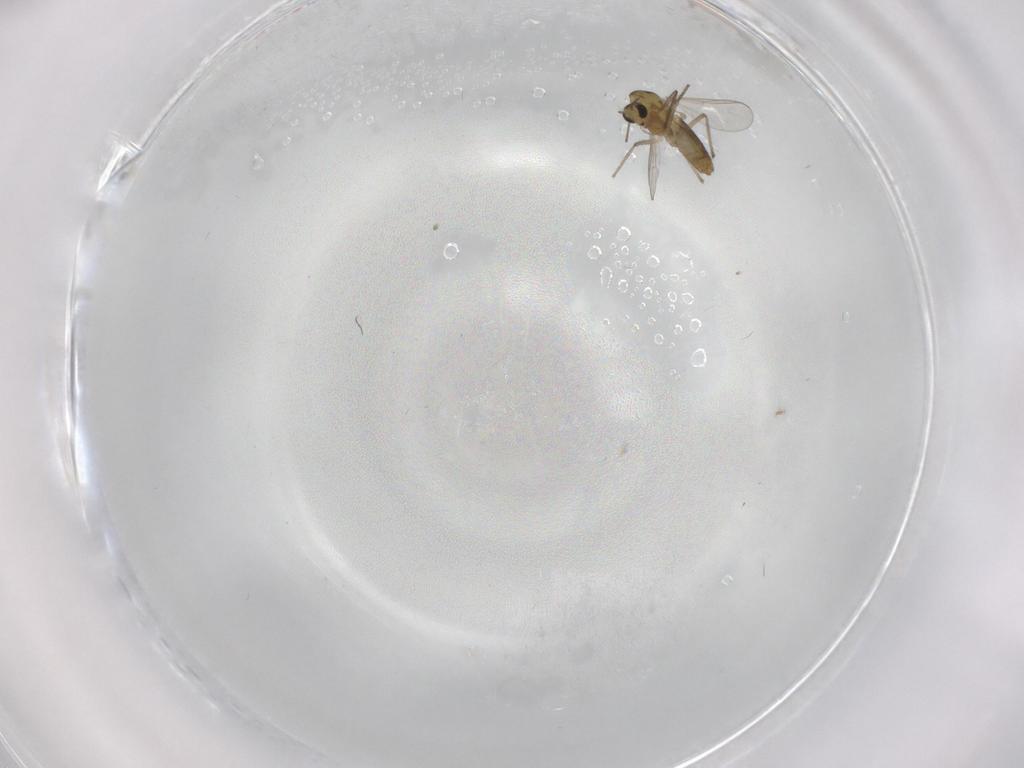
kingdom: Animalia
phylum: Arthropoda
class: Insecta
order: Diptera
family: Chironomidae
